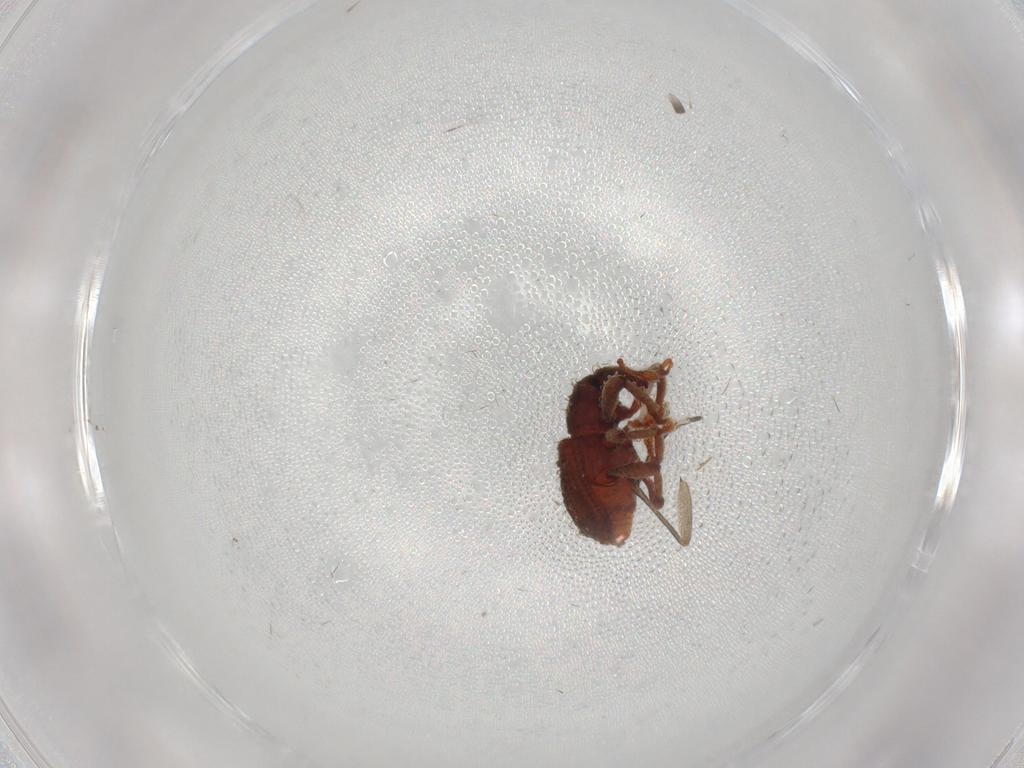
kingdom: Animalia
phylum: Arthropoda
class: Insecta
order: Coleoptera
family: Curculionidae
